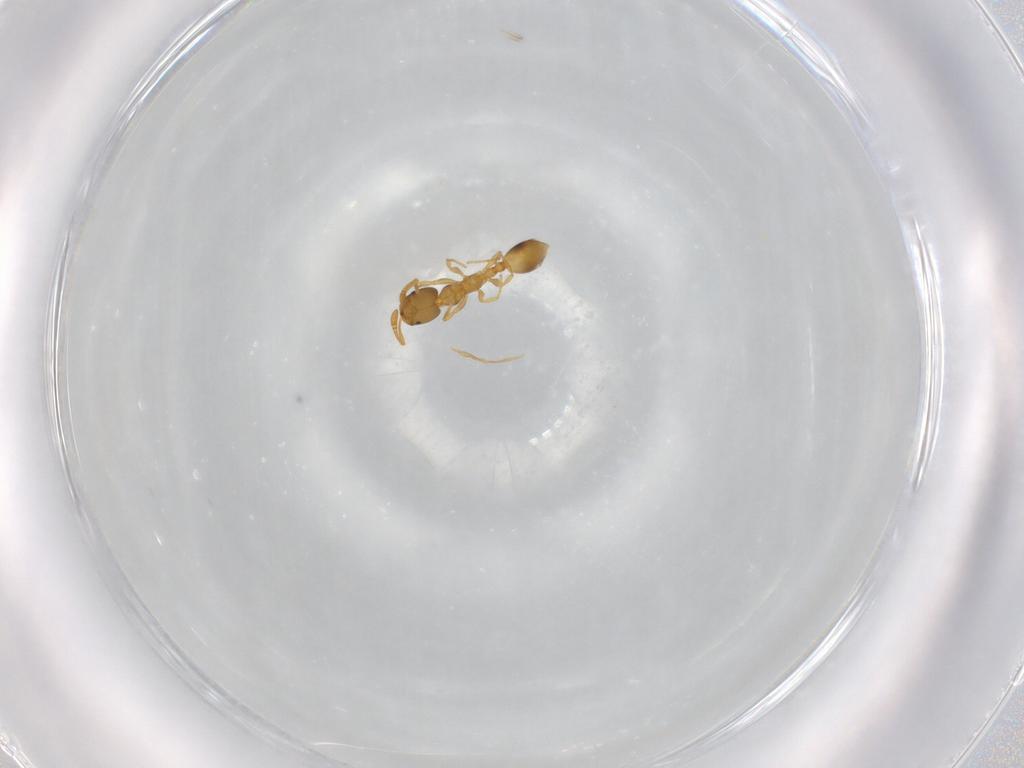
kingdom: Animalia
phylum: Arthropoda
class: Insecta
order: Hymenoptera
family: Formicidae
